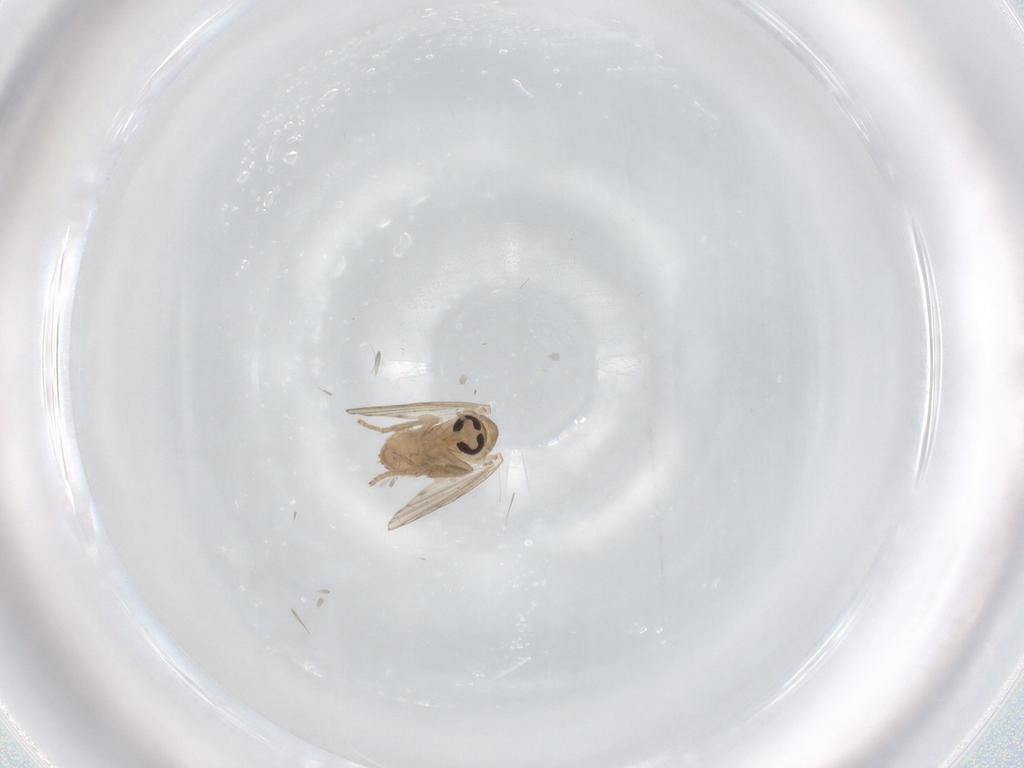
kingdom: Animalia
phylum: Arthropoda
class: Insecta
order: Diptera
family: Psychodidae
